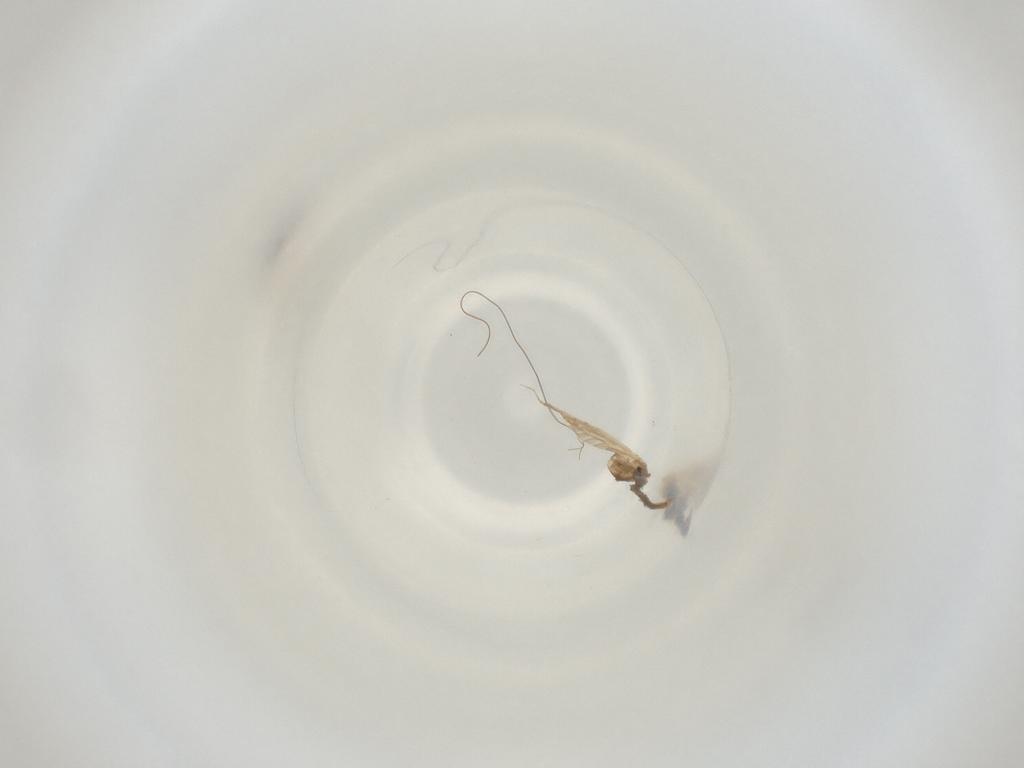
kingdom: Animalia
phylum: Arthropoda
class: Insecta
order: Diptera
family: Cecidomyiidae
